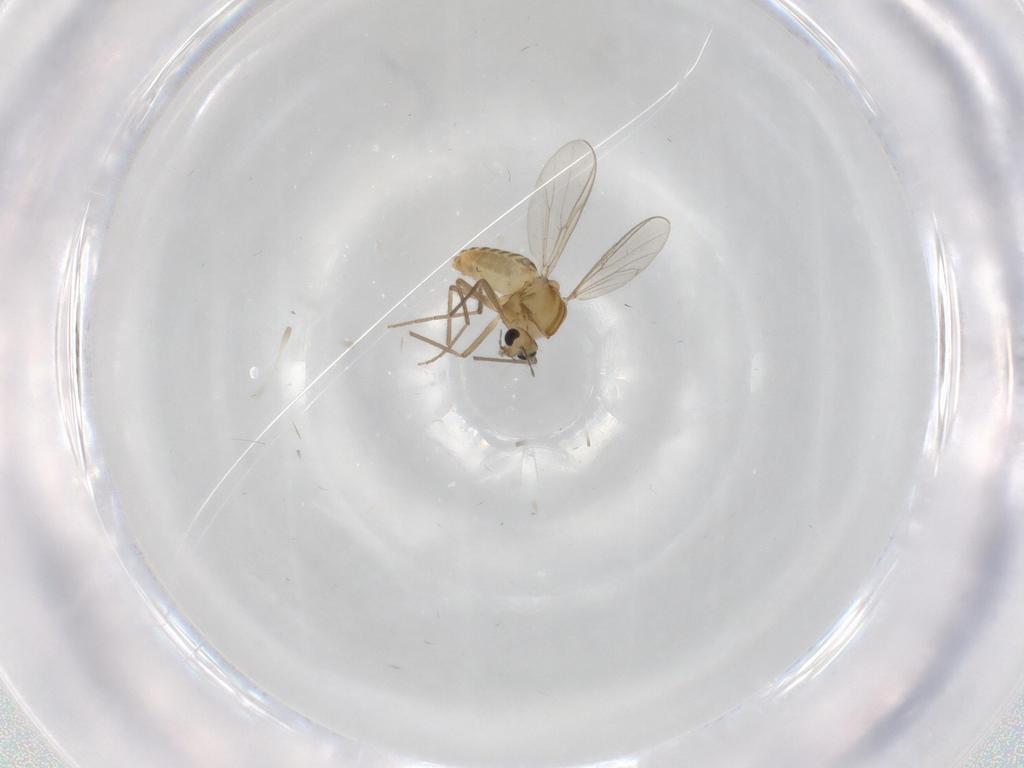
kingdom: Animalia
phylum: Arthropoda
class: Insecta
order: Diptera
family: Chironomidae
